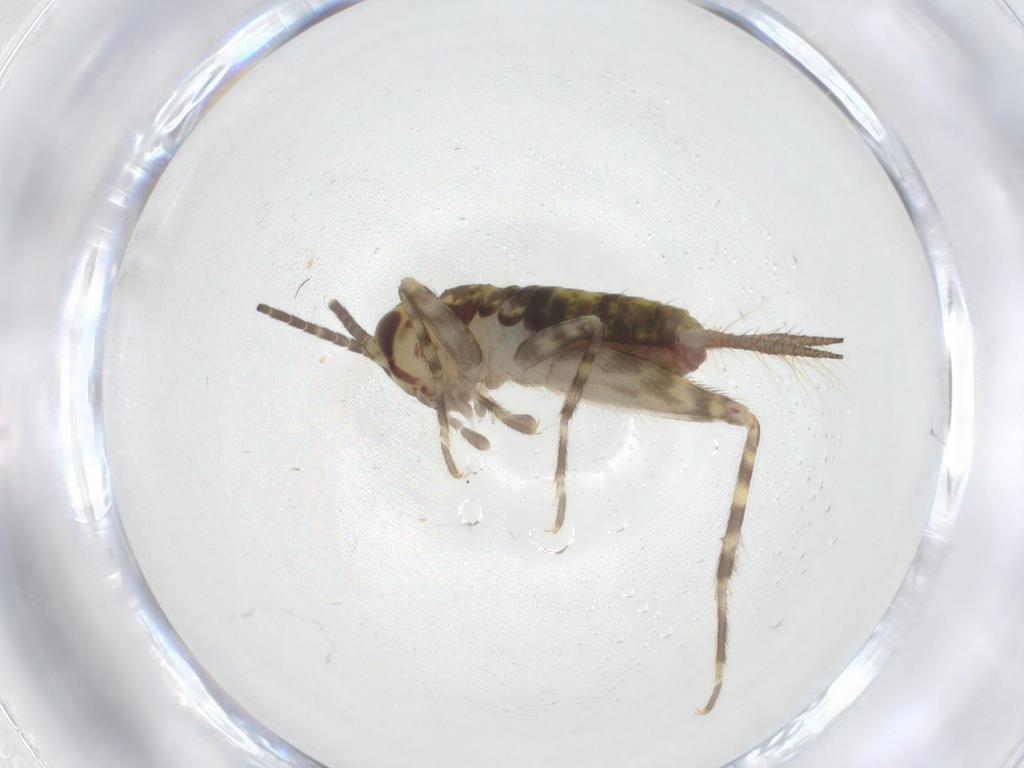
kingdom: Animalia
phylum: Arthropoda
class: Insecta
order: Orthoptera
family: Gryllidae
